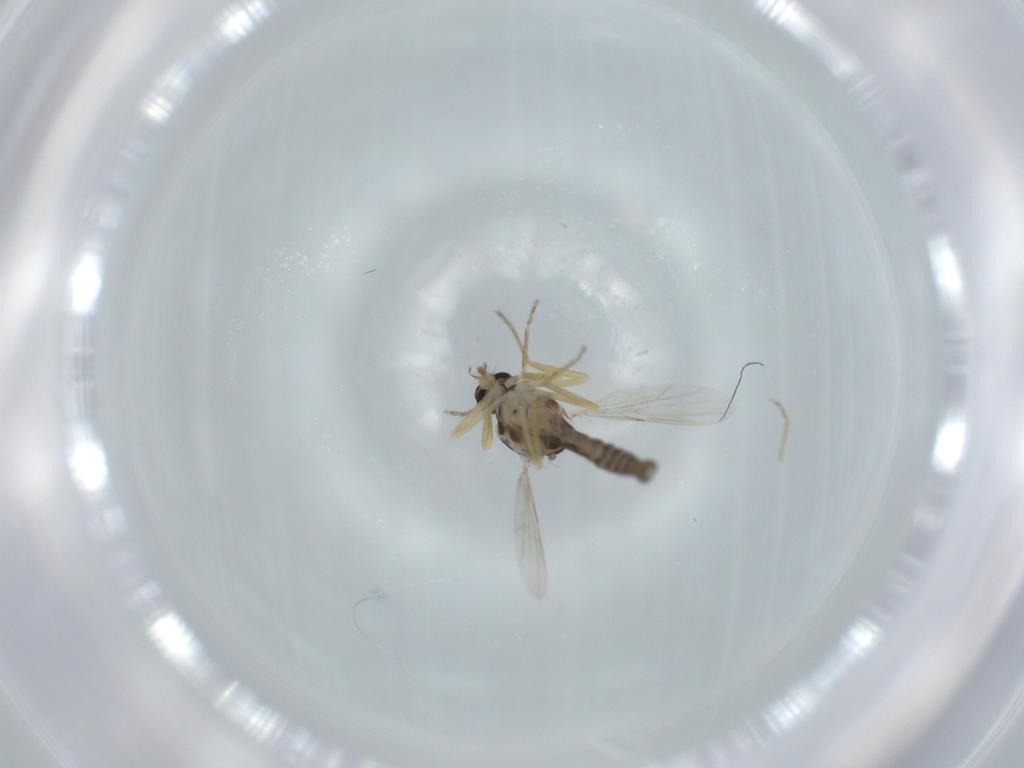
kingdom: Animalia
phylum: Arthropoda
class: Insecta
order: Diptera
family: Ceratopogonidae
